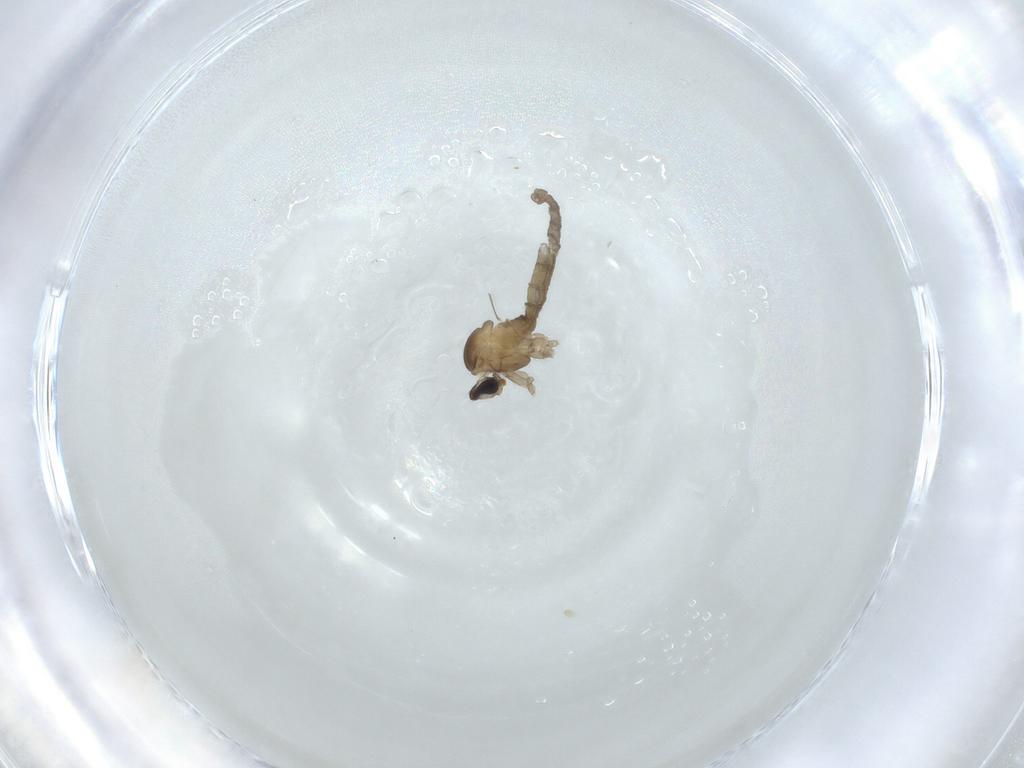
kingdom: Animalia
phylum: Arthropoda
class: Insecta
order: Diptera
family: Cecidomyiidae
